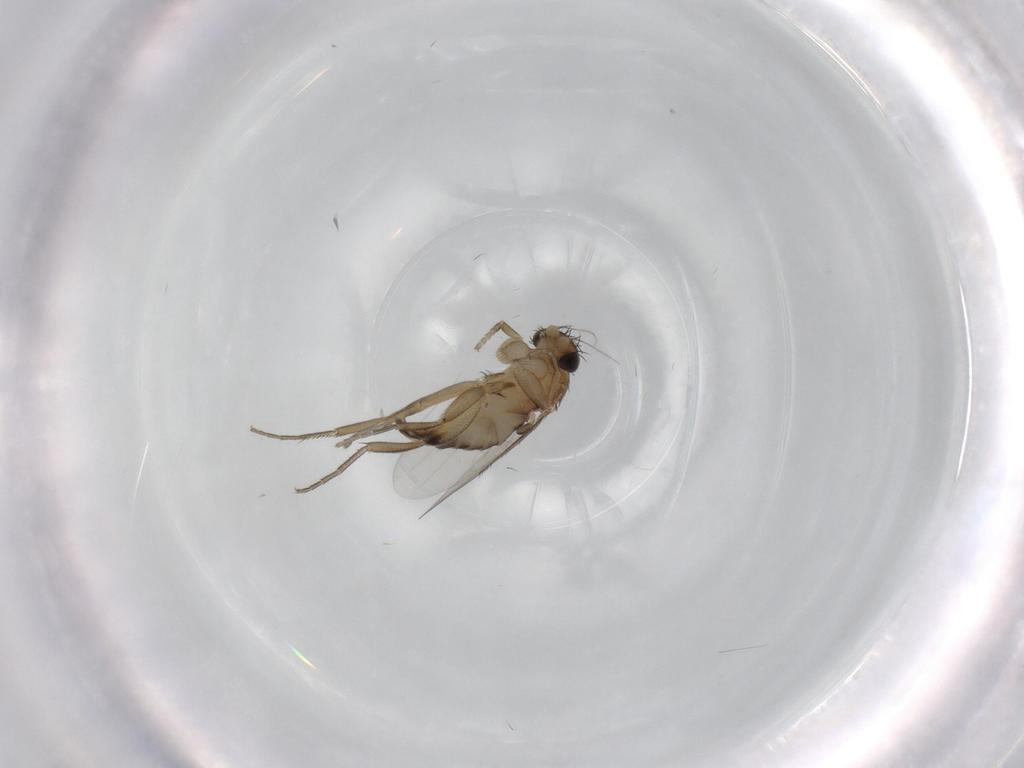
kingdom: Animalia
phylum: Arthropoda
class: Insecta
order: Diptera
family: Phoridae
